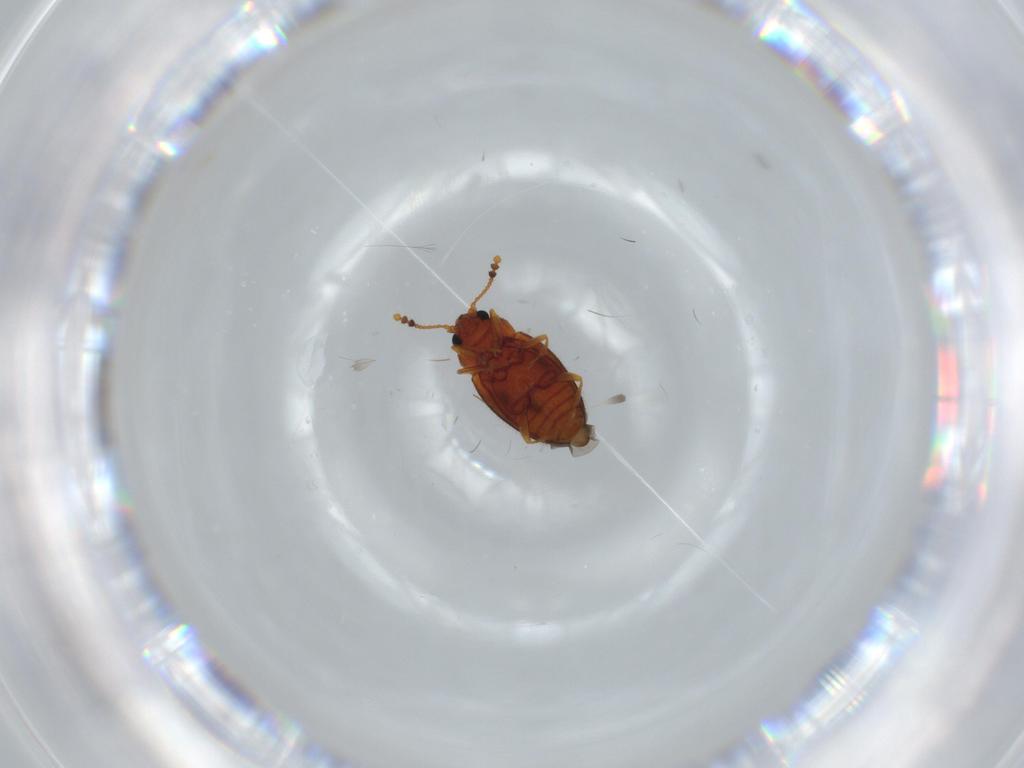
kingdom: Animalia
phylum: Arthropoda
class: Insecta
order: Coleoptera
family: Erotylidae
